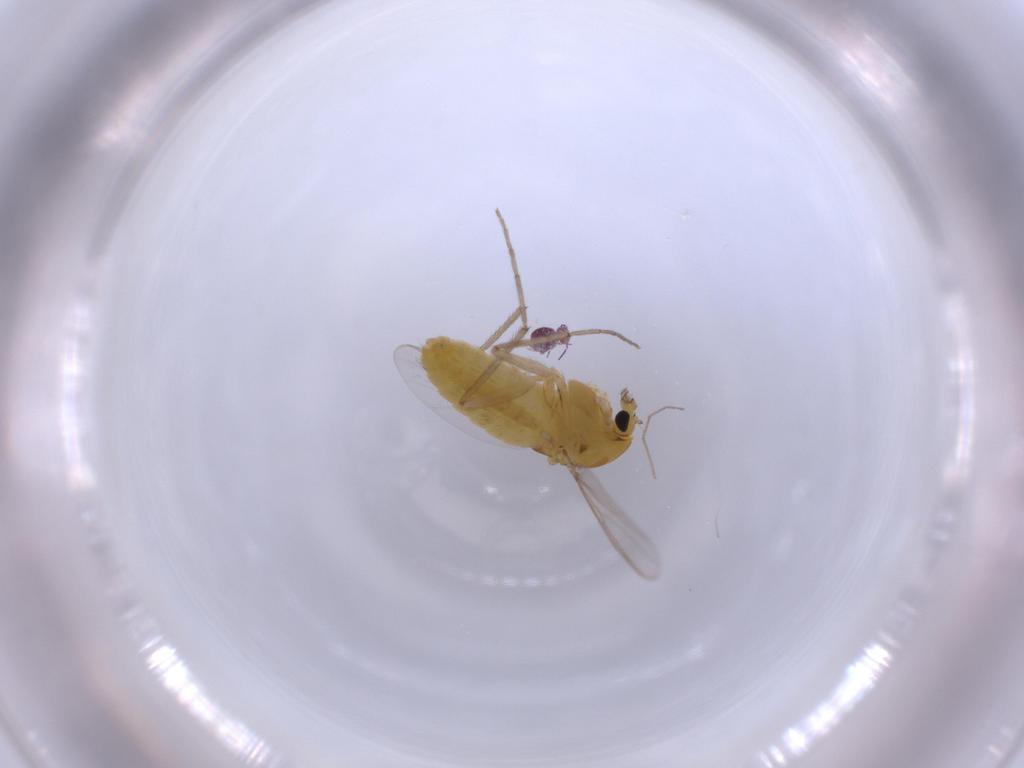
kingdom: Animalia
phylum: Arthropoda
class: Insecta
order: Diptera
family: Chironomidae
